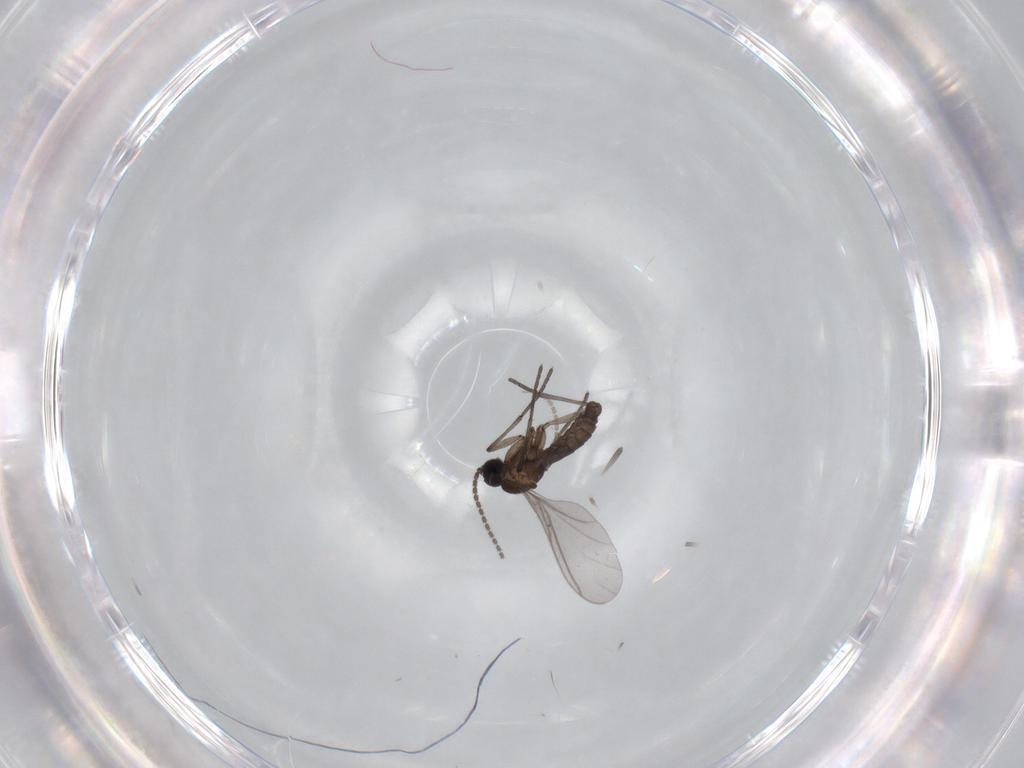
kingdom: Animalia
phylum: Arthropoda
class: Insecta
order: Diptera
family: Sciaridae
